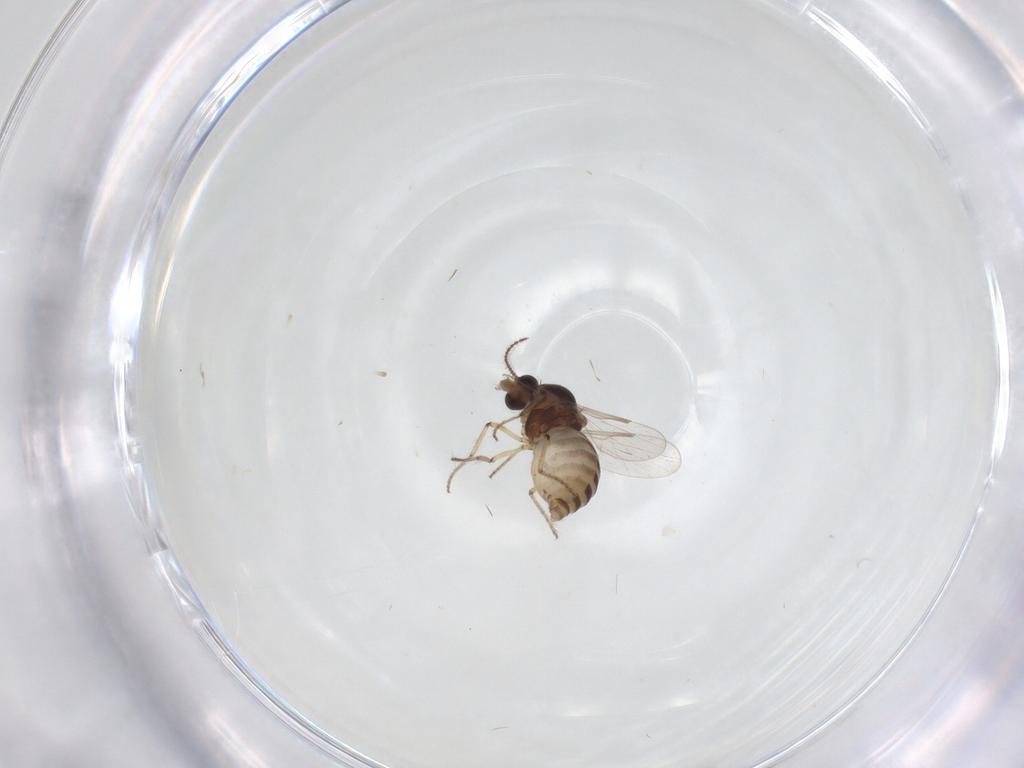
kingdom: Animalia
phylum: Arthropoda
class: Insecta
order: Diptera
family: Ceratopogonidae
